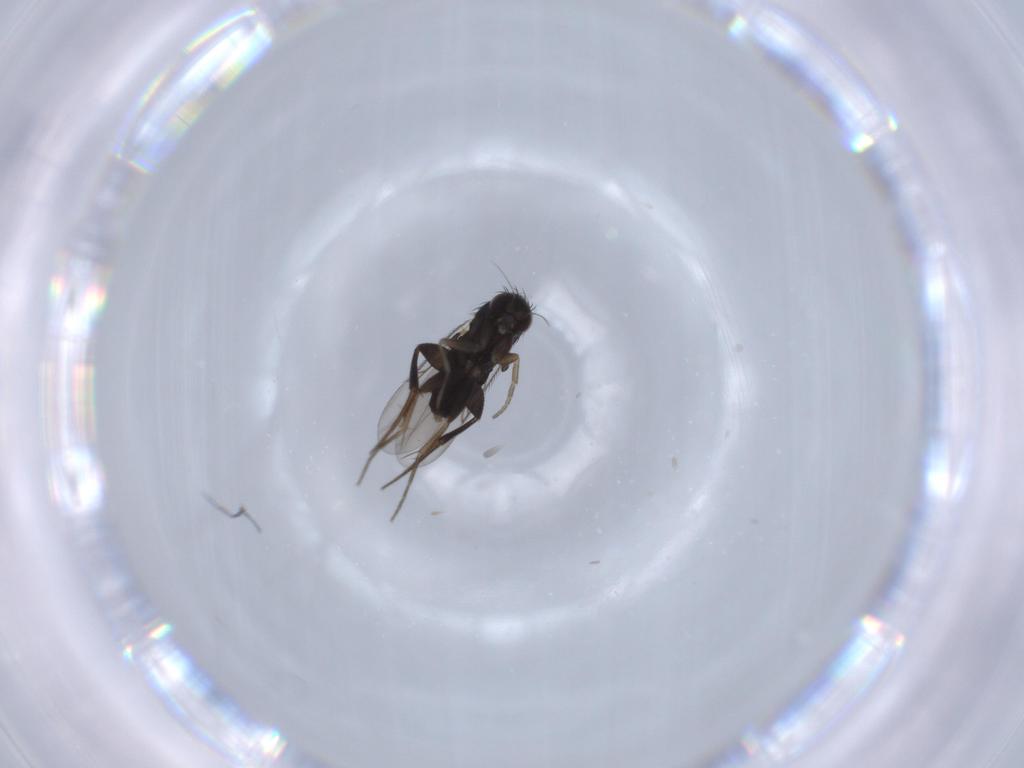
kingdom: Animalia
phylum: Arthropoda
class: Insecta
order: Diptera
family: Phoridae
